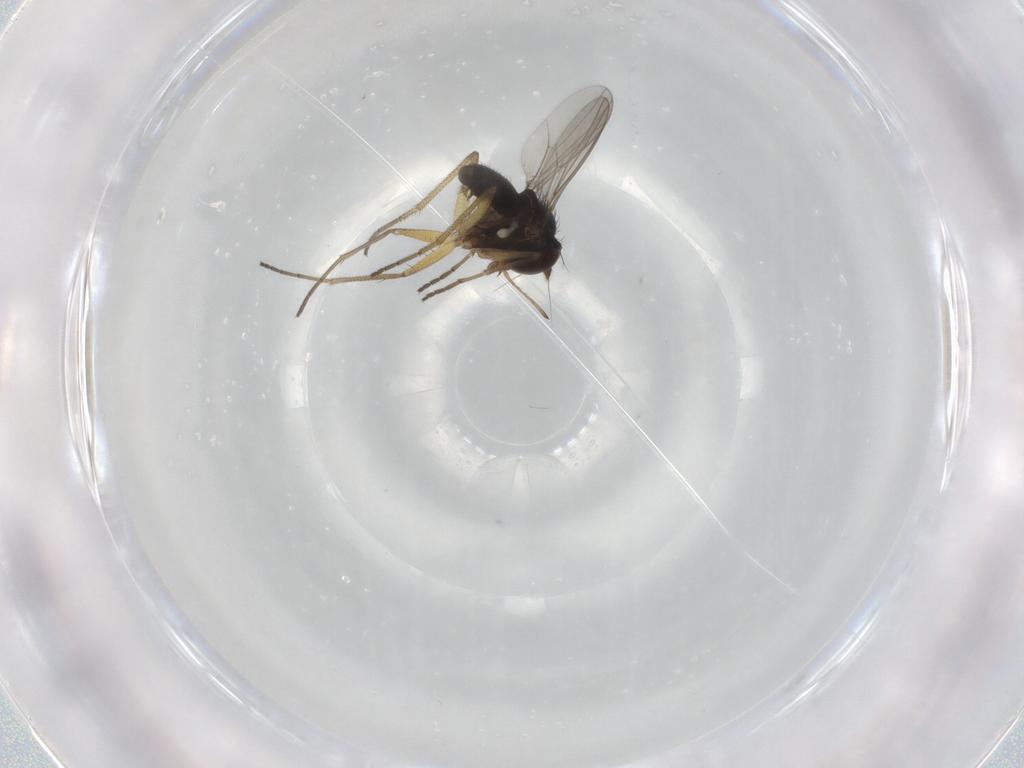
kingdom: Animalia
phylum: Arthropoda
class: Insecta
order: Diptera
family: Dolichopodidae
